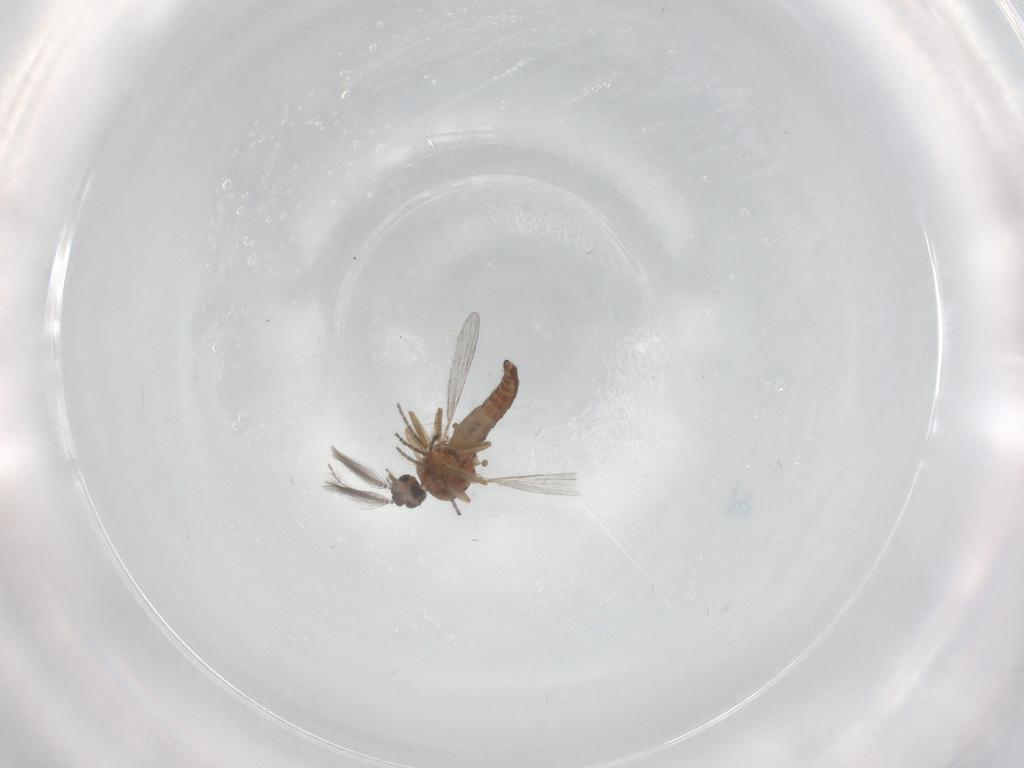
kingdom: Animalia
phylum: Arthropoda
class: Insecta
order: Diptera
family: Ceratopogonidae
